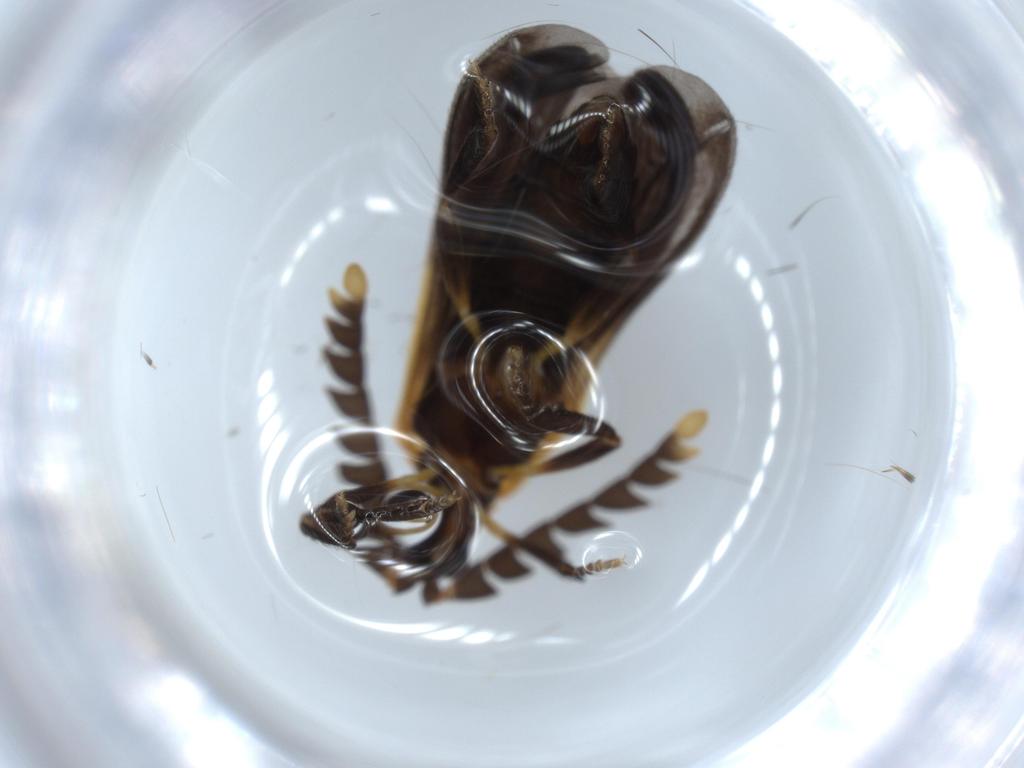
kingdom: Animalia
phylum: Arthropoda
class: Insecta
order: Coleoptera
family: Lycidae
